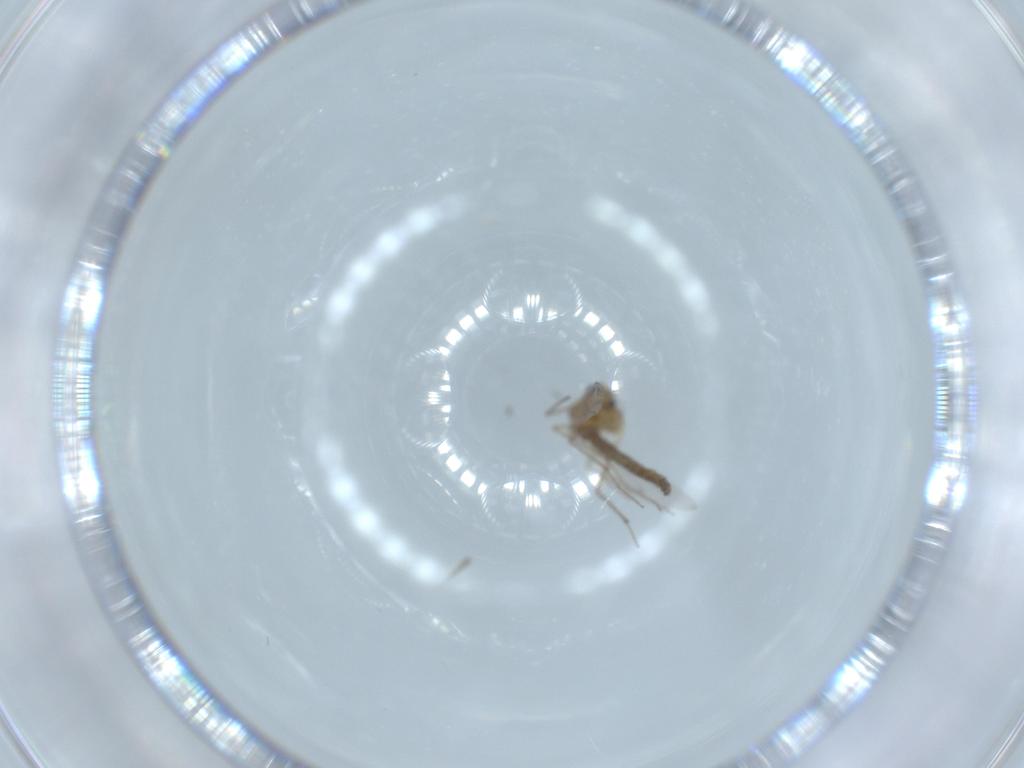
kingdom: Animalia
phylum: Arthropoda
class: Insecta
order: Diptera
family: Chironomidae
